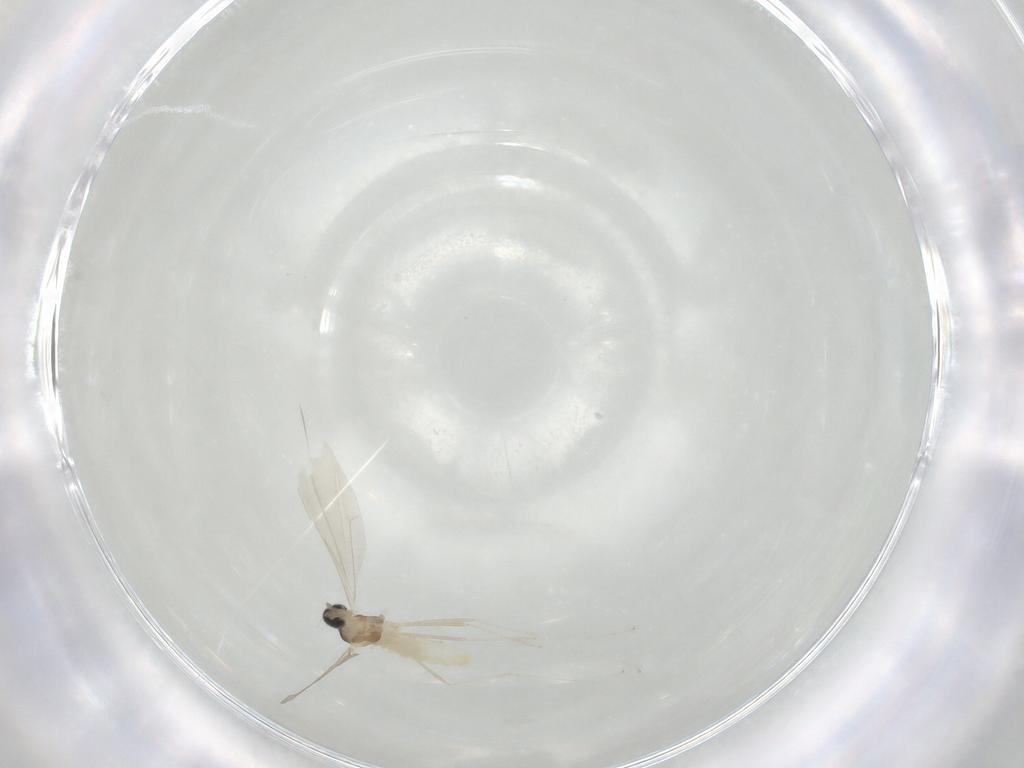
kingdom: Animalia
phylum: Arthropoda
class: Insecta
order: Diptera
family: Cecidomyiidae
